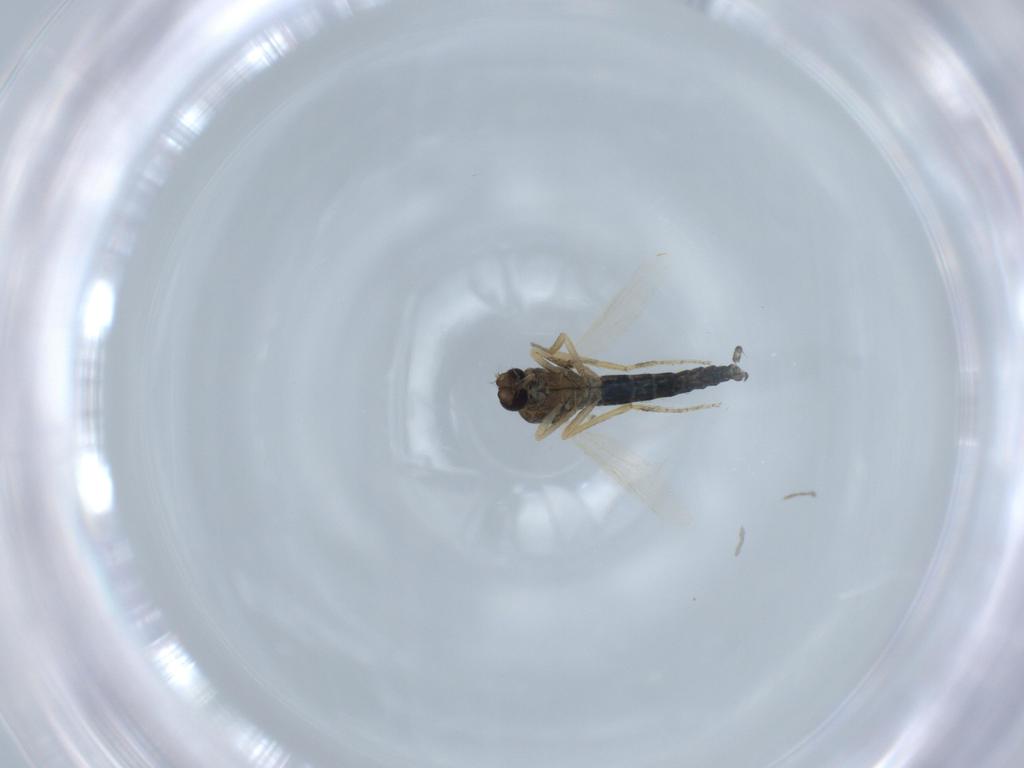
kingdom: Animalia
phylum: Arthropoda
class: Insecta
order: Diptera
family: Ceratopogonidae
